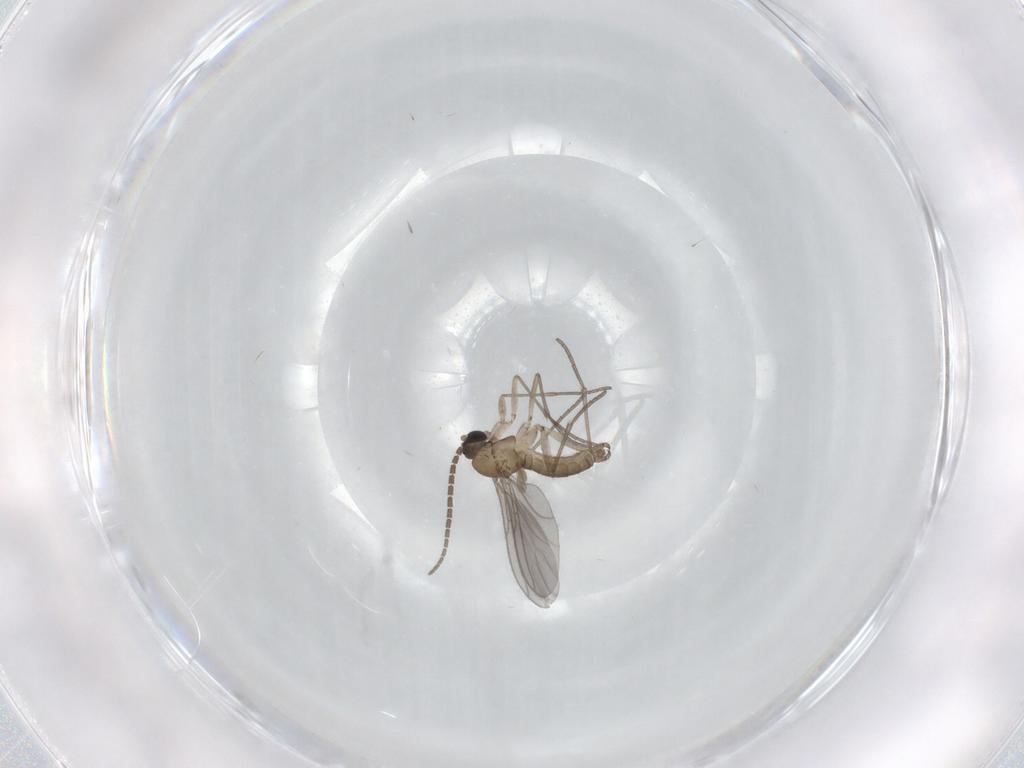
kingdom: Animalia
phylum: Arthropoda
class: Insecta
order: Diptera
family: Sciaridae
